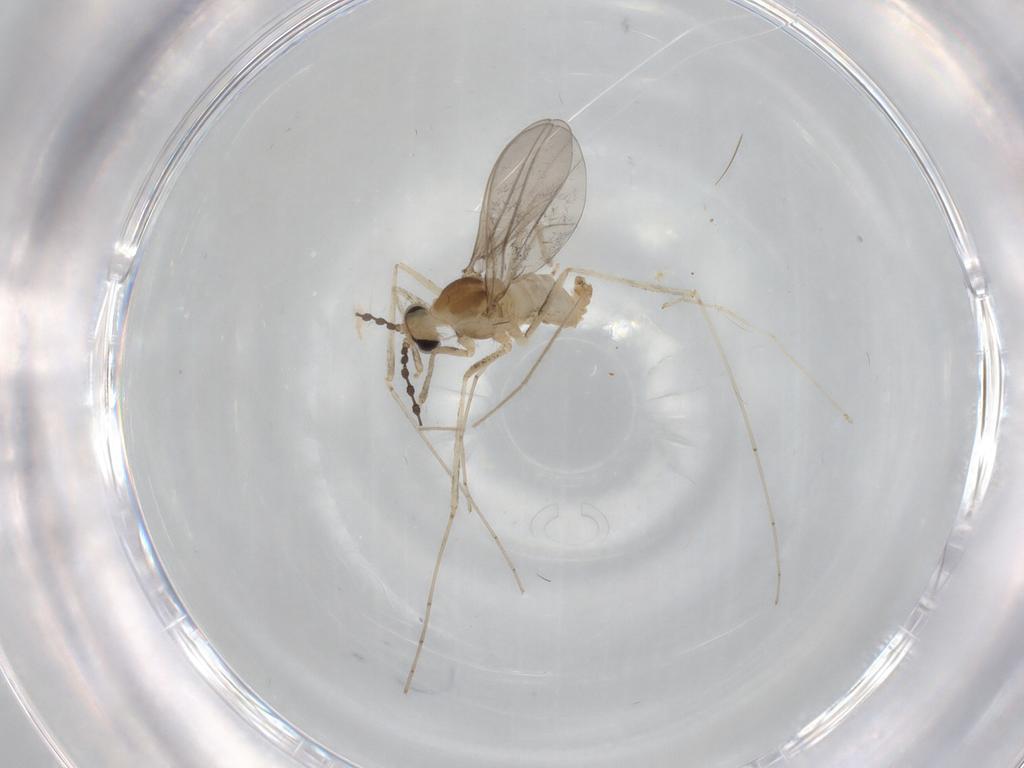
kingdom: Animalia
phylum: Arthropoda
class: Insecta
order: Diptera
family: Cecidomyiidae
